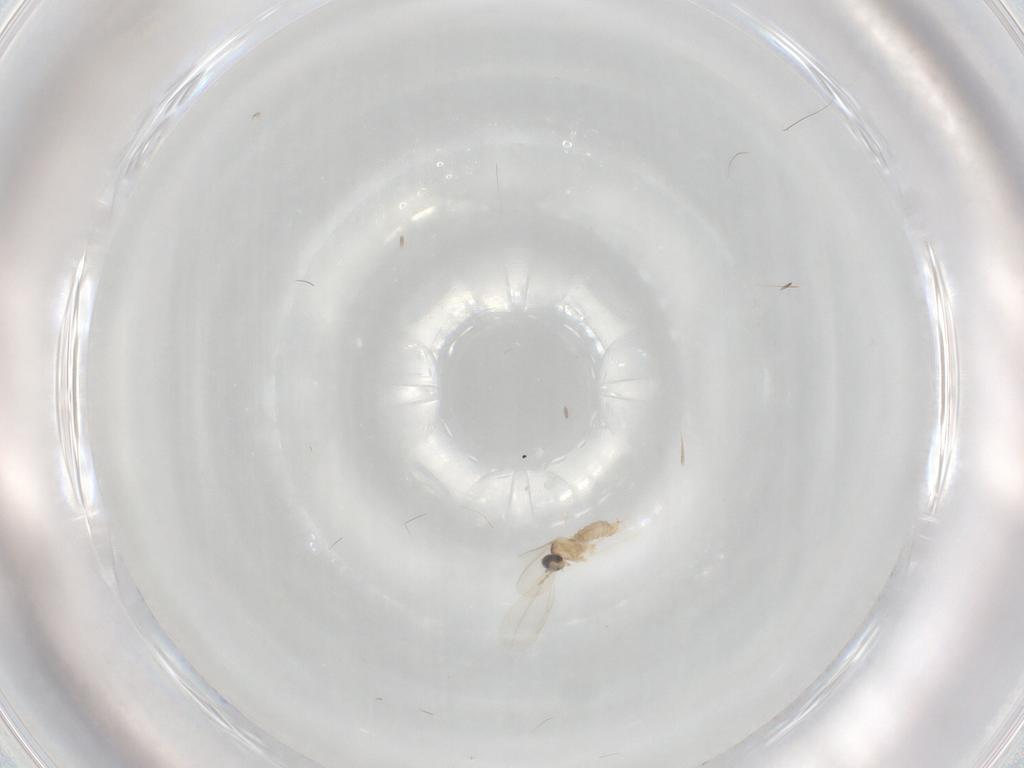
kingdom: Animalia
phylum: Arthropoda
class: Insecta
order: Diptera
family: Cecidomyiidae
